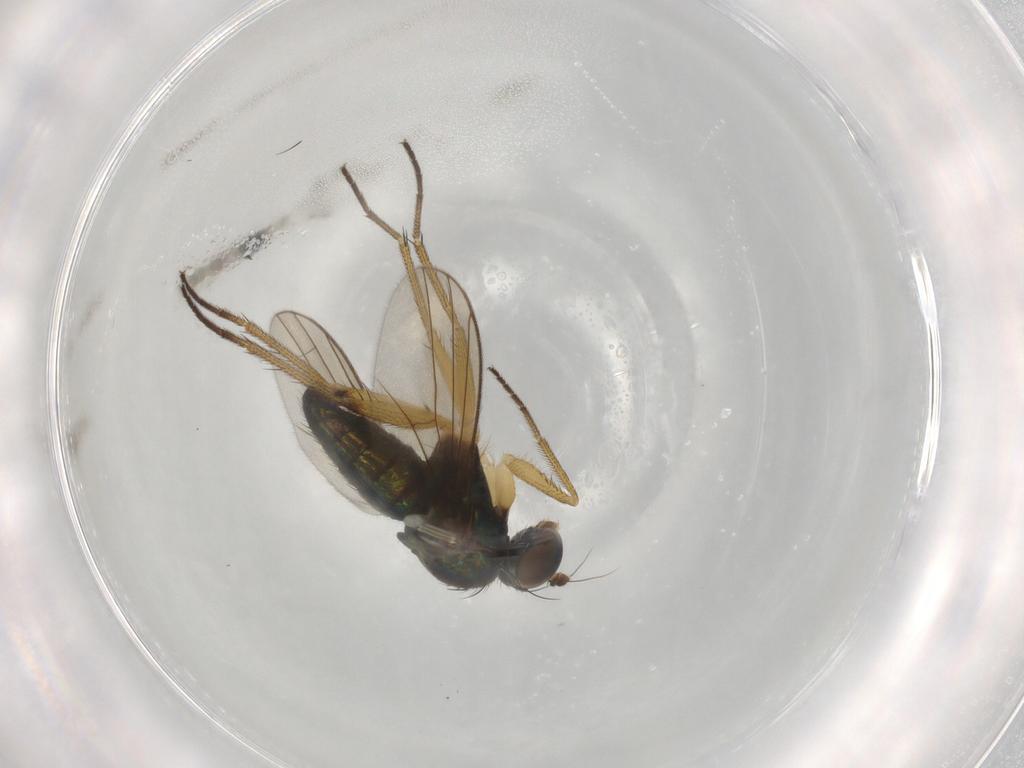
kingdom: Animalia
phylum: Arthropoda
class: Insecta
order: Diptera
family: Dolichopodidae
